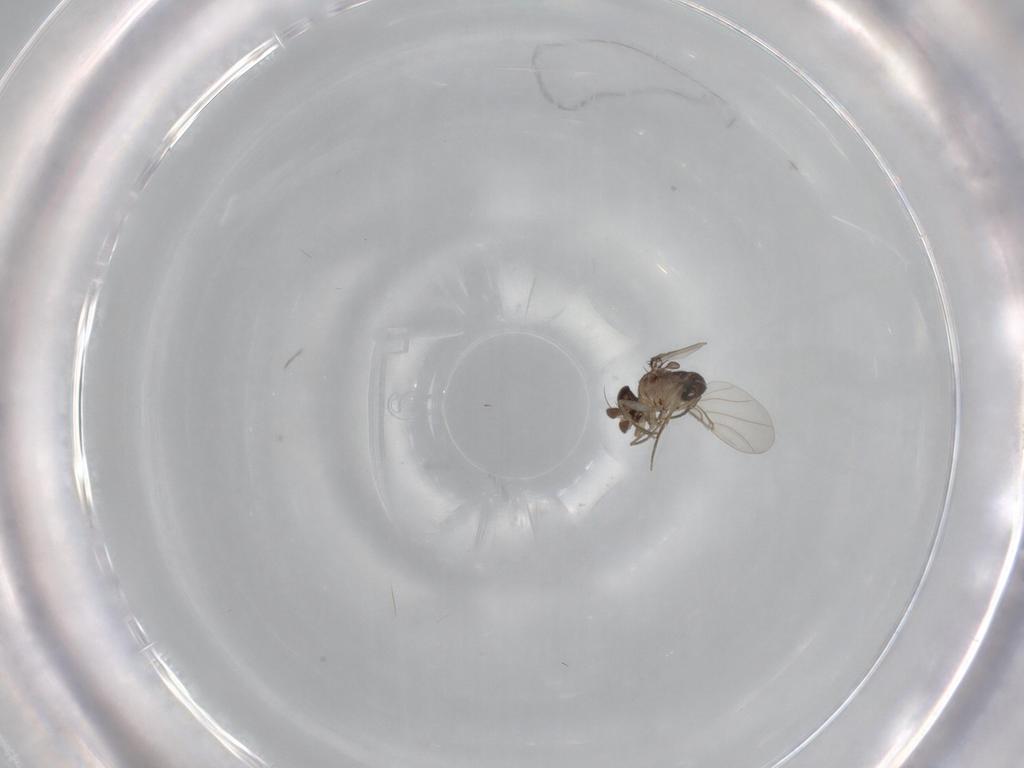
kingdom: Animalia
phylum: Arthropoda
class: Insecta
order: Diptera
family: Phoridae
